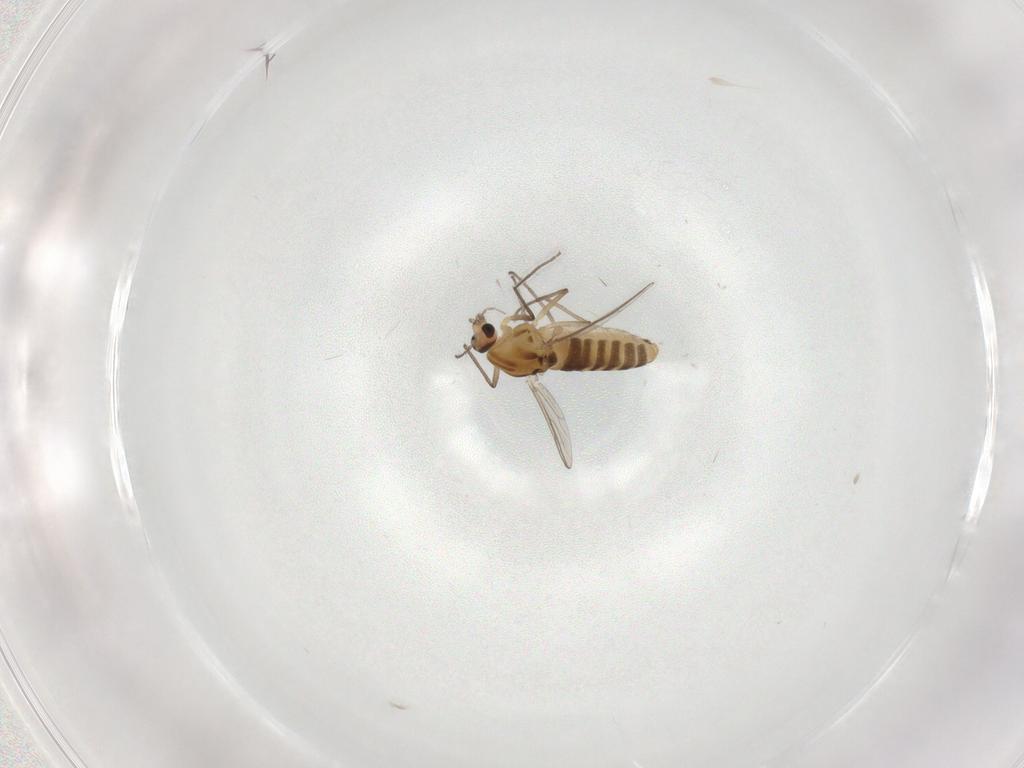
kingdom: Animalia
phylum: Arthropoda
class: Insecta
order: Diptera
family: Chironomidae
